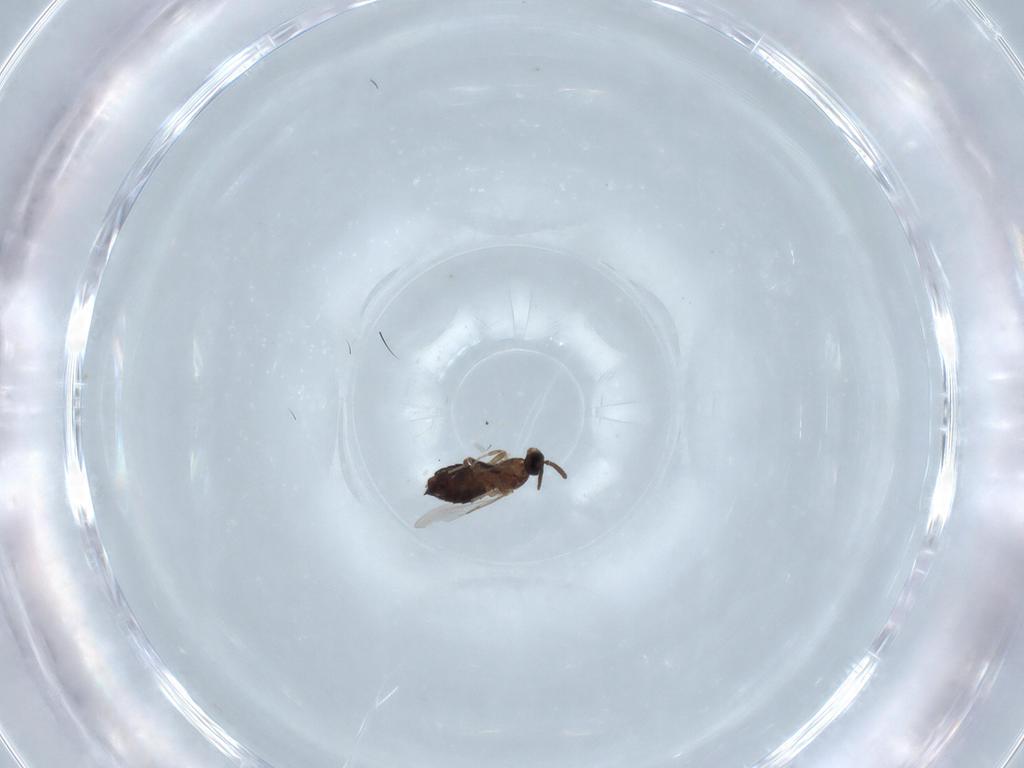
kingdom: Animalia
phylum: Arthropoda
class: Insecta
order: Diptera
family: Dolichopodidae
